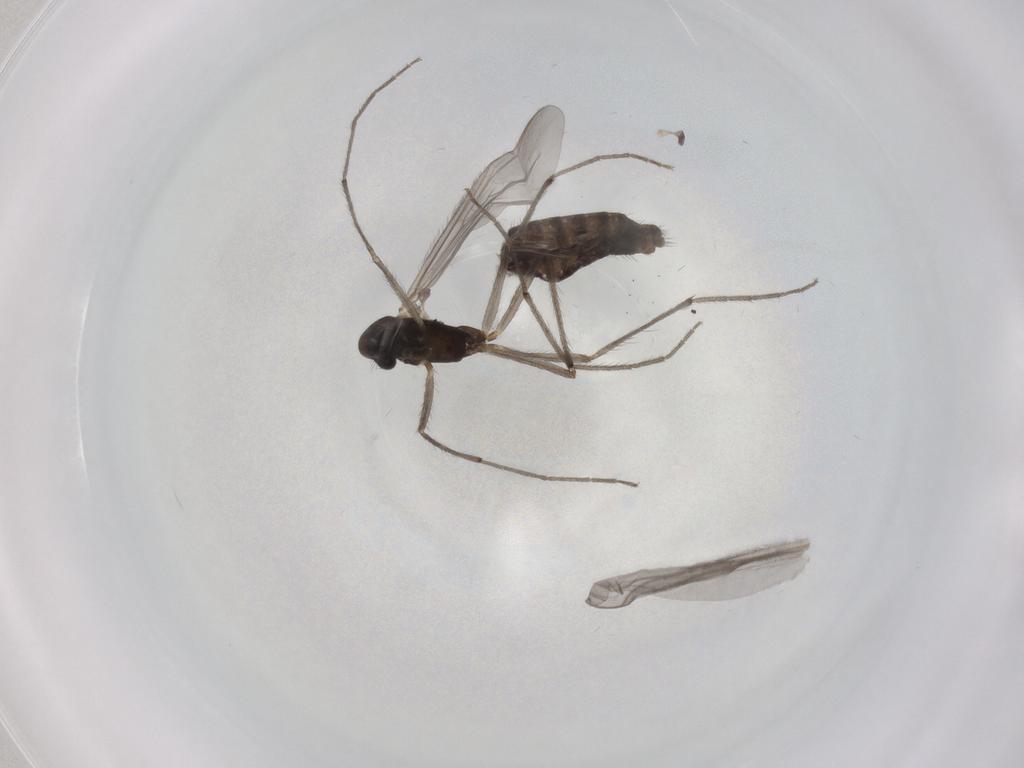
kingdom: Animalia
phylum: Arthropoda
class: Insecta
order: Diptera
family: Chironomidae
